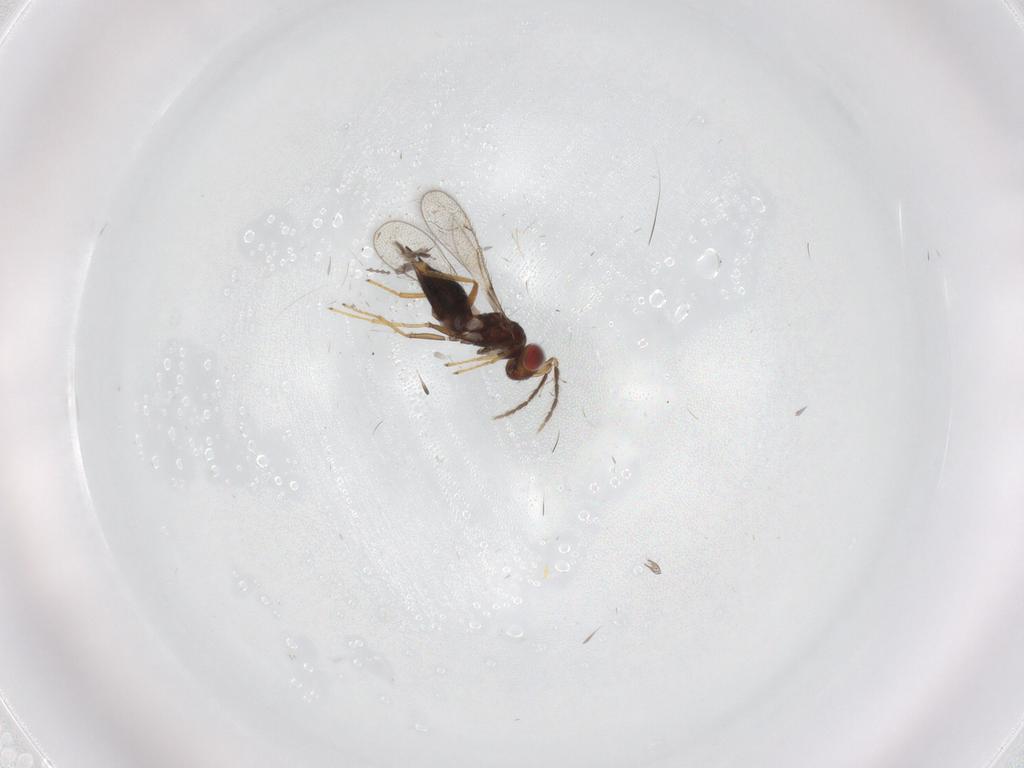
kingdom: Animalia
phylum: Arthropoda
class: Insecta
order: Hymenoptera
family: Eulophidae
